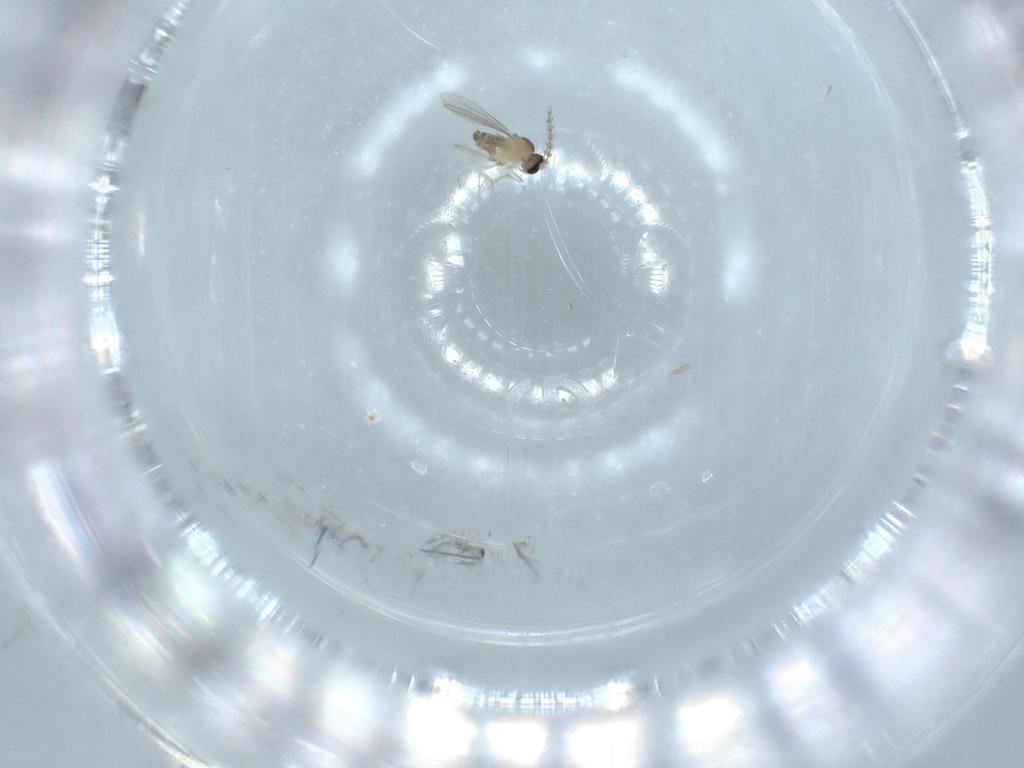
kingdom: Animalia
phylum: Arthropoda
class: Insecta
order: Diptera
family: Cecidomyiidae
